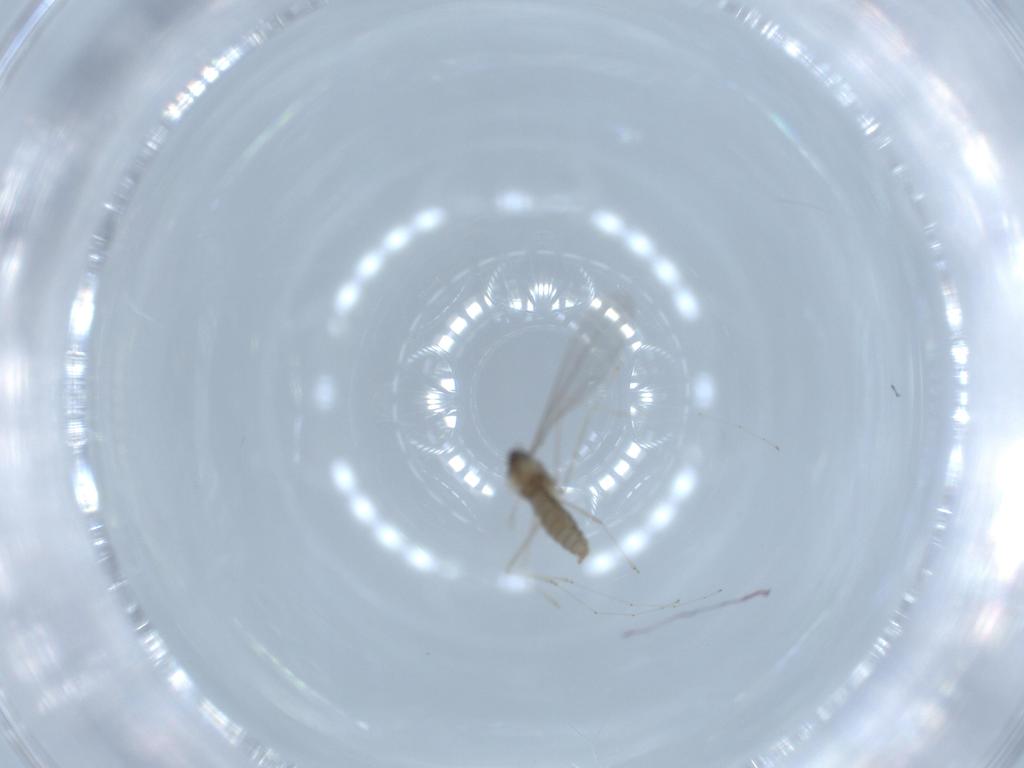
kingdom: Animalia
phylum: Arthropoda
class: Insecta
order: Diptera
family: Cecidomyiidae
